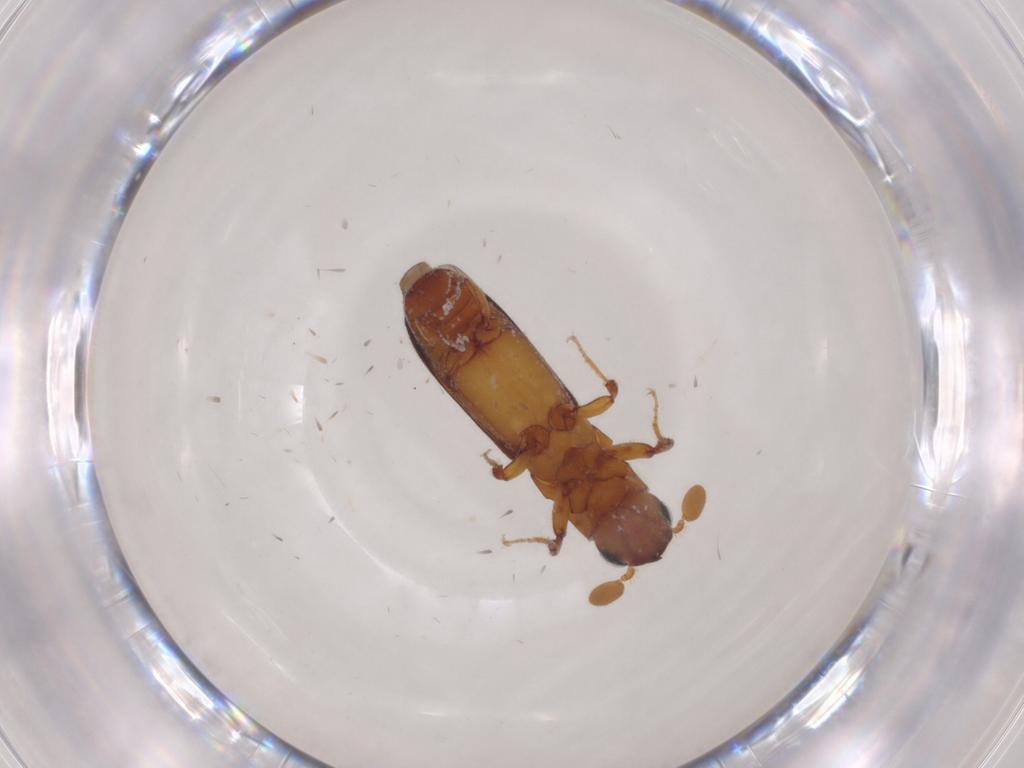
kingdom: Animalia
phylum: Arthropoda
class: Insecta
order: Coleoptera
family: Curculionidae
